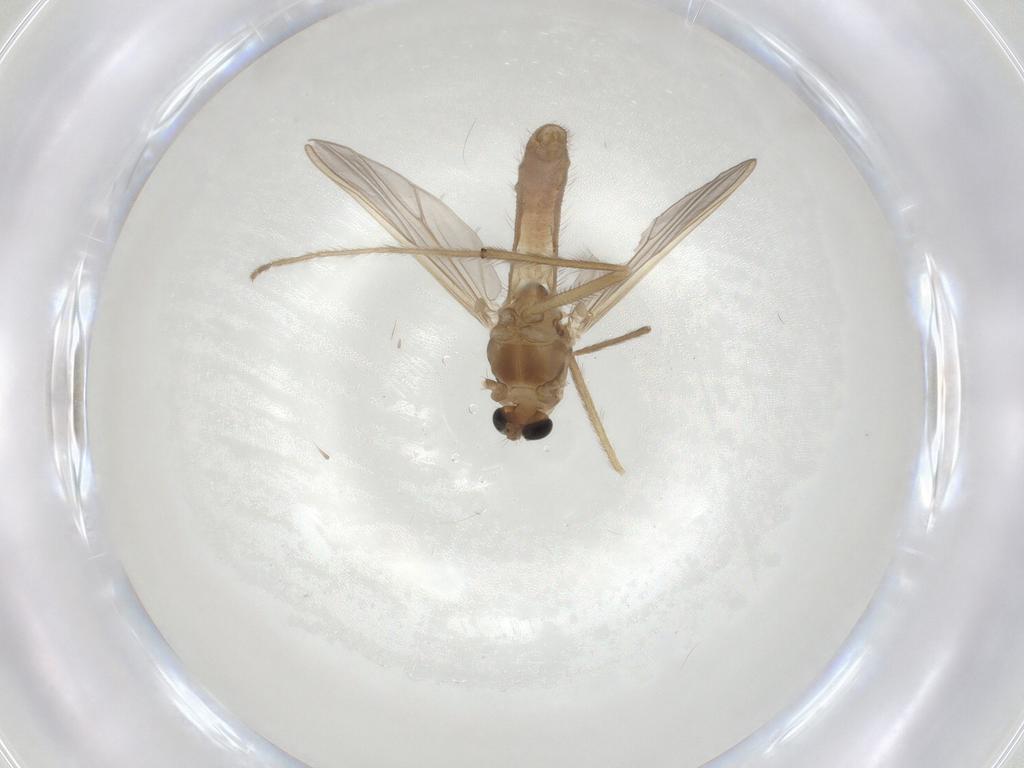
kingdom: Animalia
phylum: Arthropoda
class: Insecta
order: Diptera
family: Chironomidae
